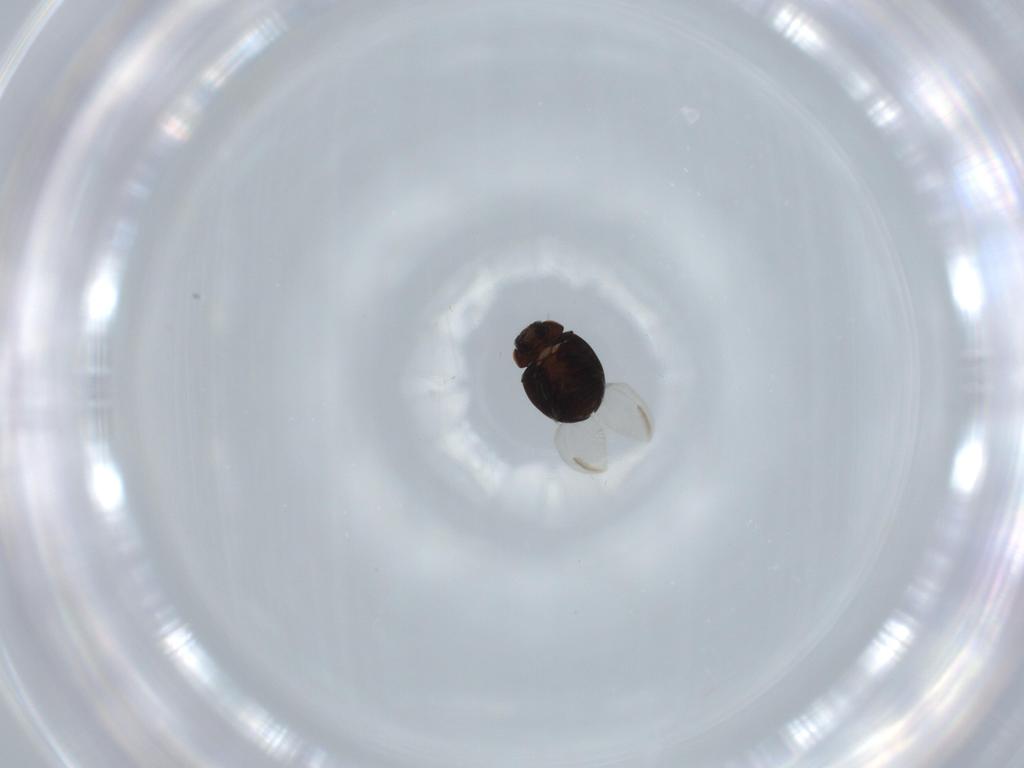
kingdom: Animalia
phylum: Arthropoda
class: Insecta
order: Coleoptera
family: Coccinellidae
